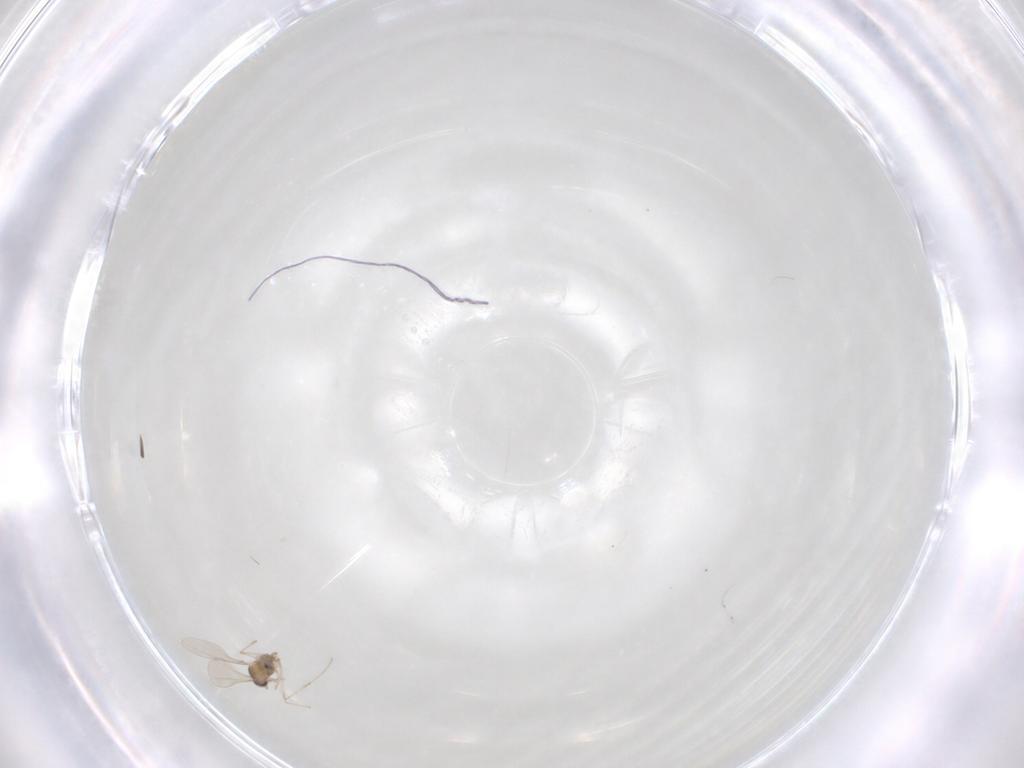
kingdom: Animalia
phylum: Arthropoda
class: Insecta
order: Diptera
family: Cecidomyiidae
